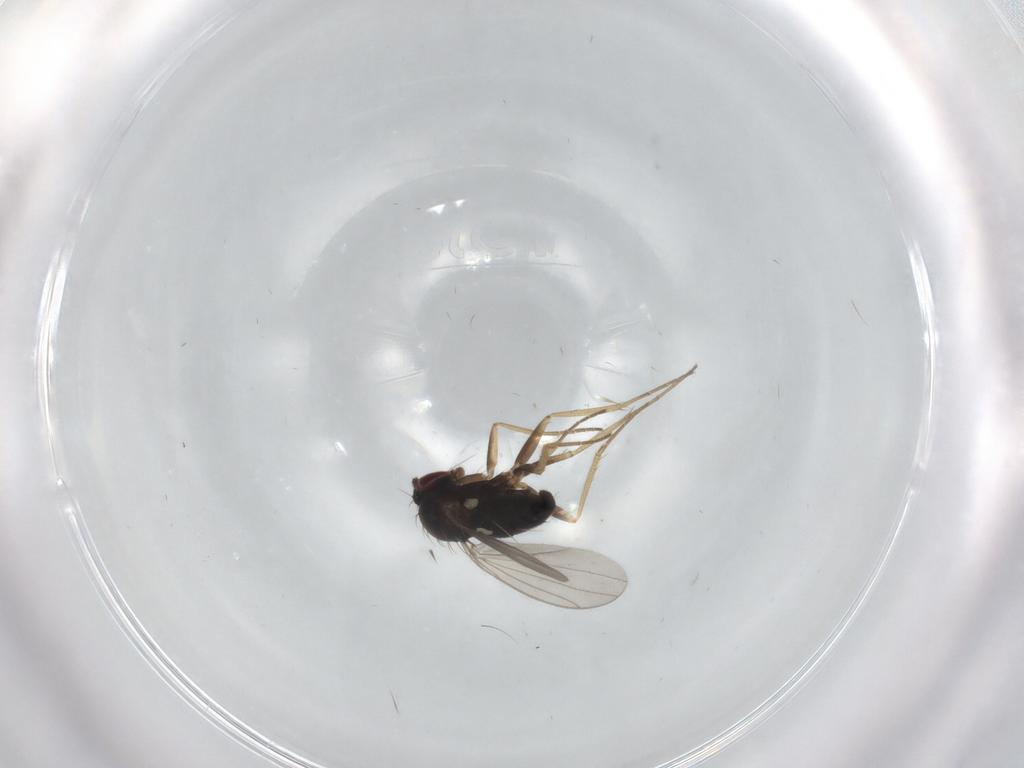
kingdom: Animalia
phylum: Arthropoda
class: Insecta
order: Diptera
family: Dolichopodidae
